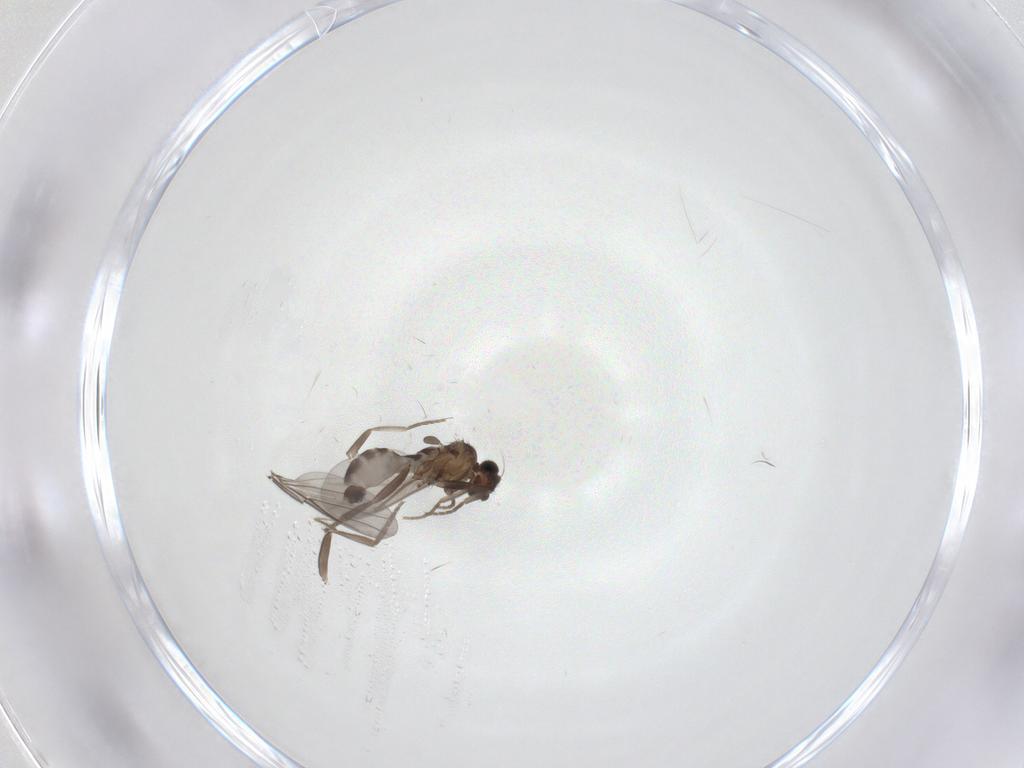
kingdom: Animalia
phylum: Arthropoda
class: Insecta
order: Diptera
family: Phoridae
